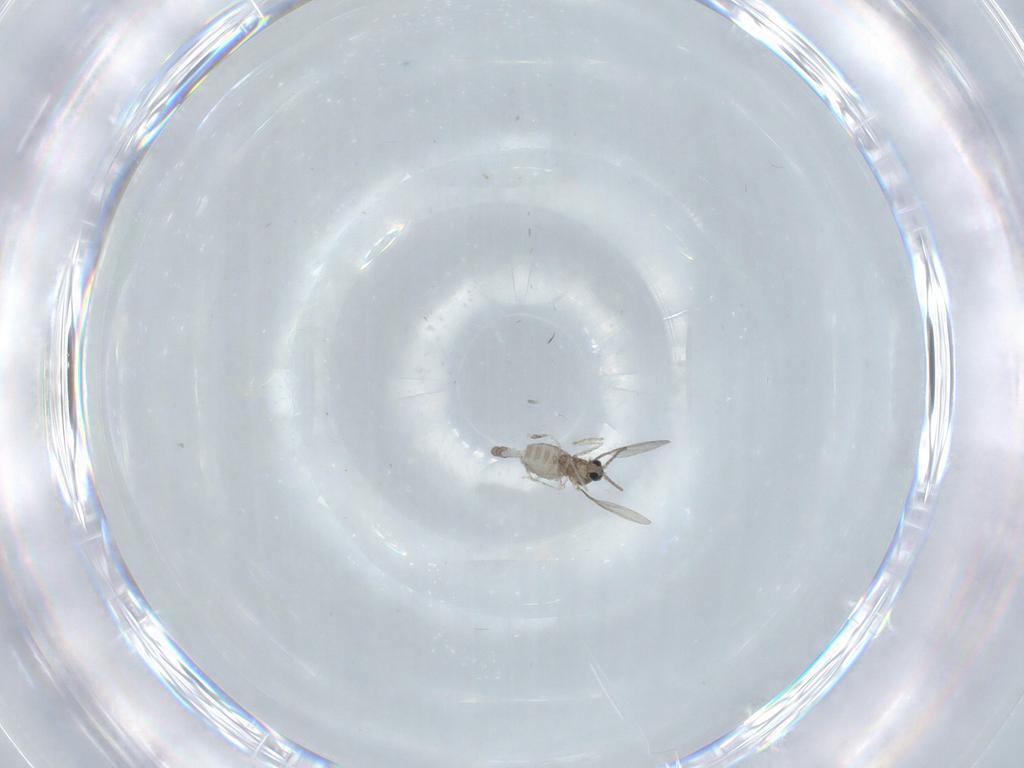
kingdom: Animalia
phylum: Arthropoda
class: Insecta
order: Diptera
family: Cecidomyiidae
